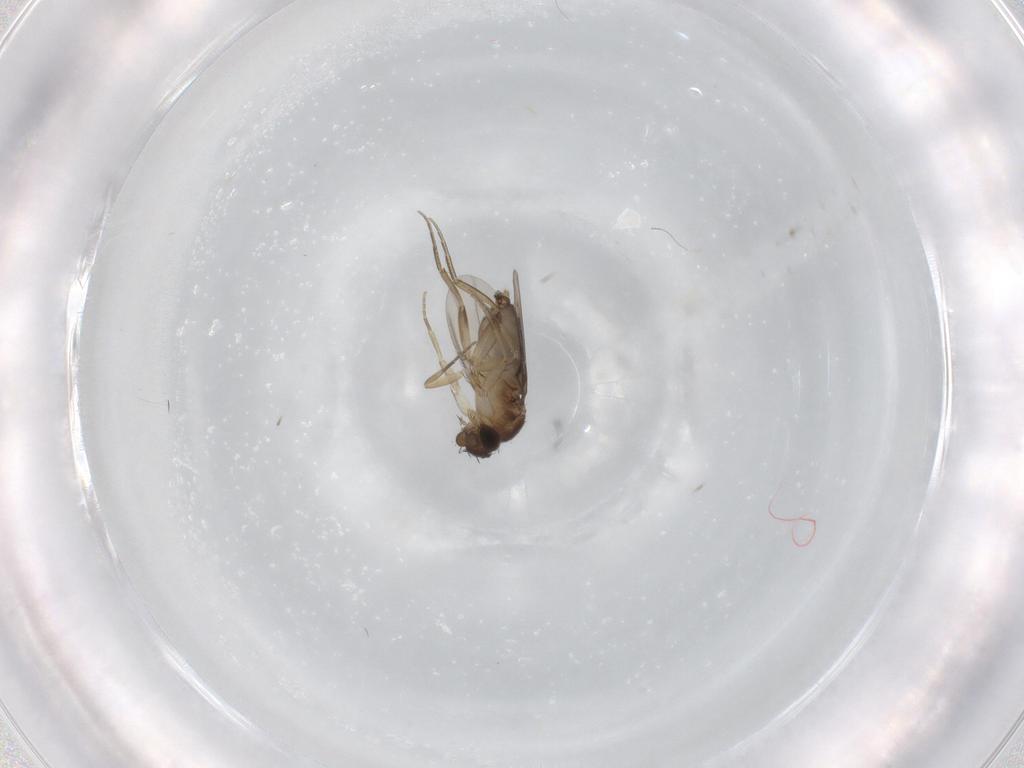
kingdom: Animalia
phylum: Arthropoda
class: Insecta
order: Diptera
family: Phoridae
